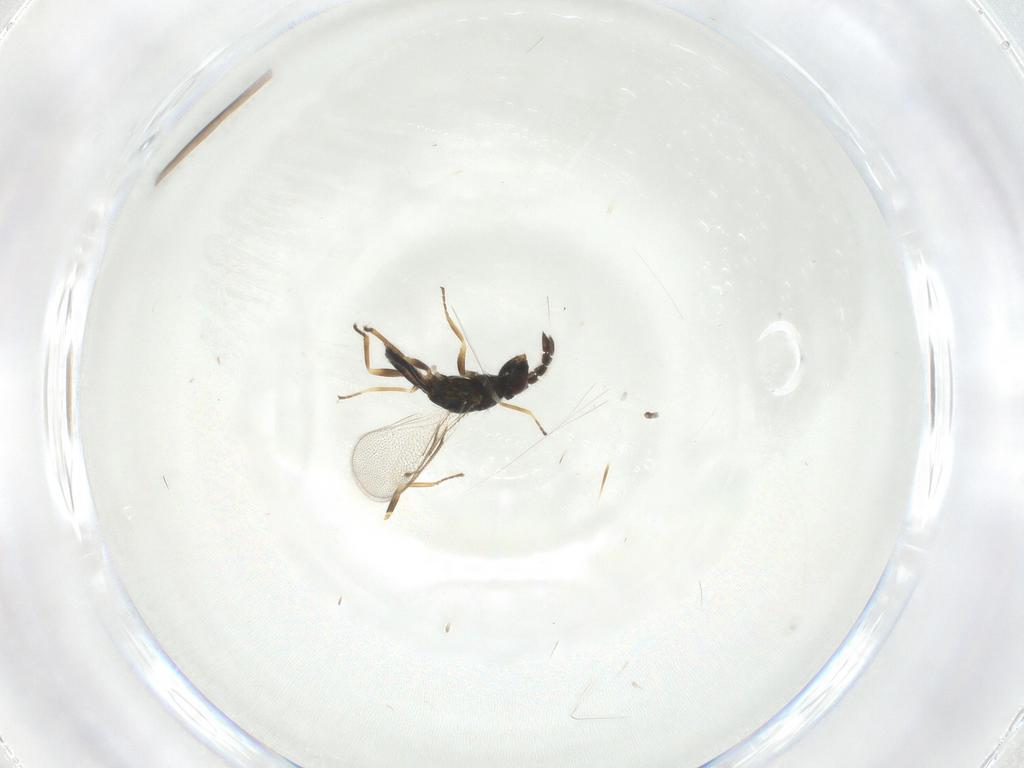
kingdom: Animalia
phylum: Arthropoda
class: Insecta
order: Hymenoptera
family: Eulophidae
